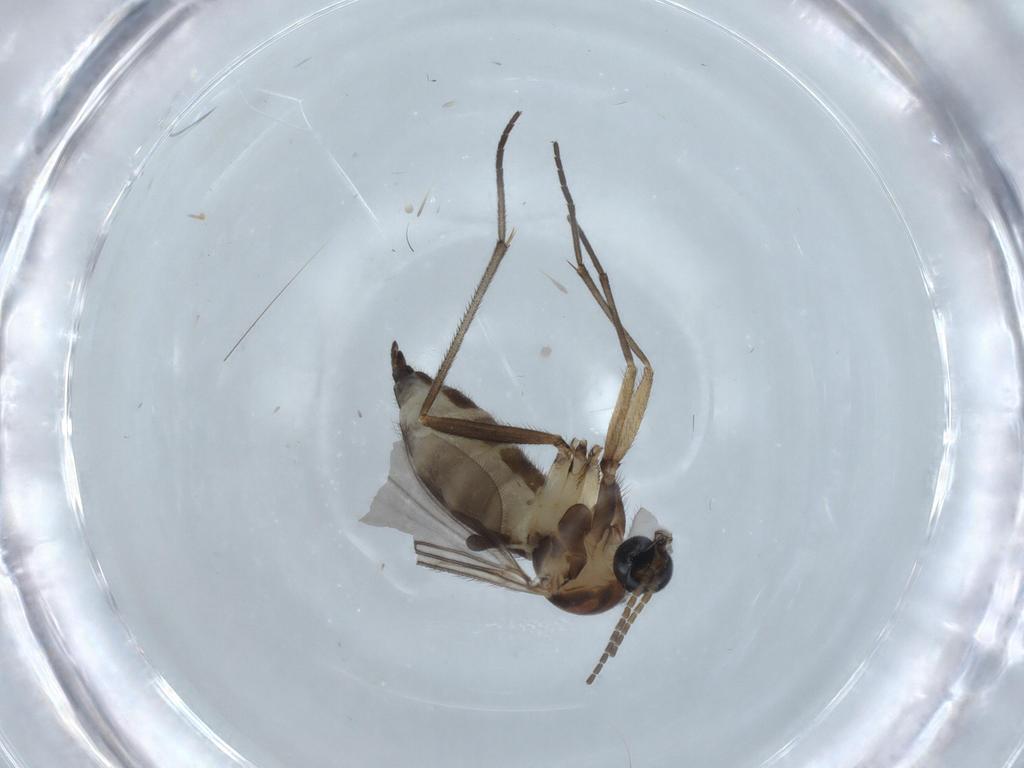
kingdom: Animalia
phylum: Arthropoda
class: Insecta
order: Diptera
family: Sciaridae
